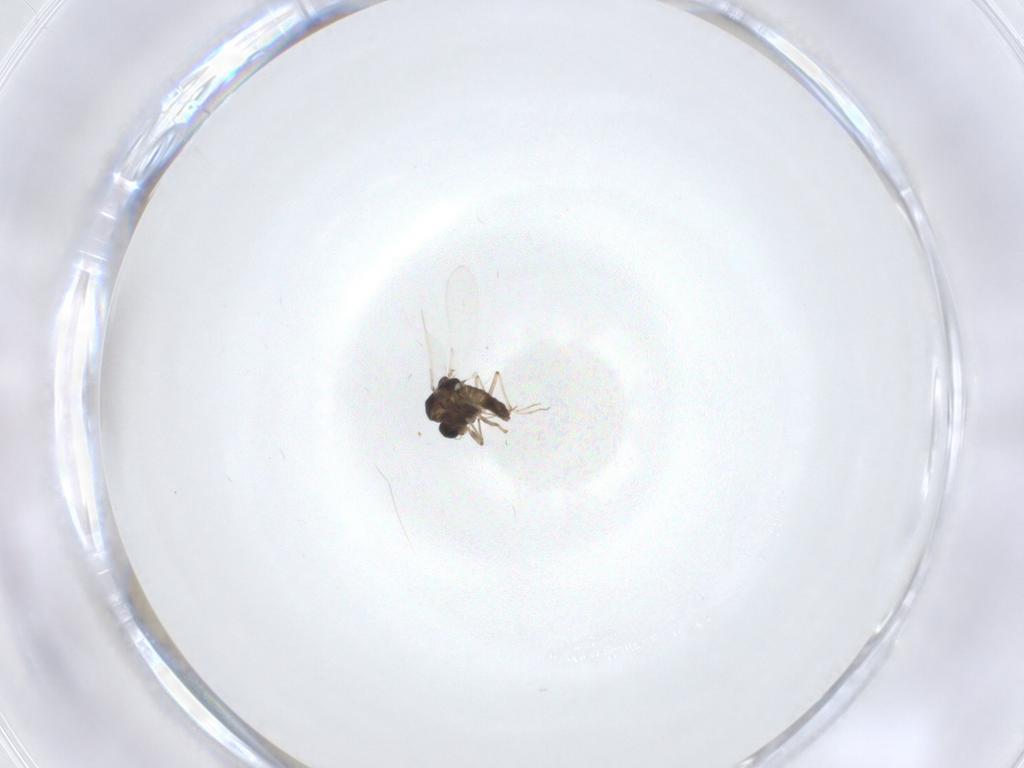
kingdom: Animalia
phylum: Arthropoda
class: Insecta
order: Diptera
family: Chironomidae
